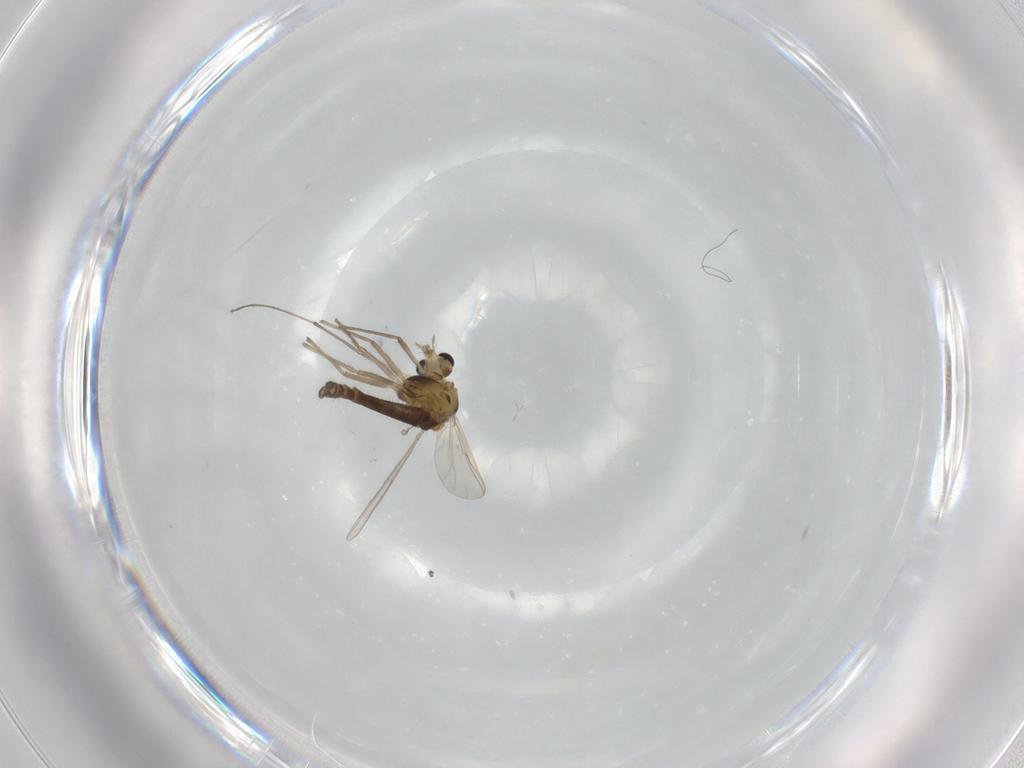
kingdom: Animalia
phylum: Arthropoda
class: Insecta
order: Diptera
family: Chironomidae
